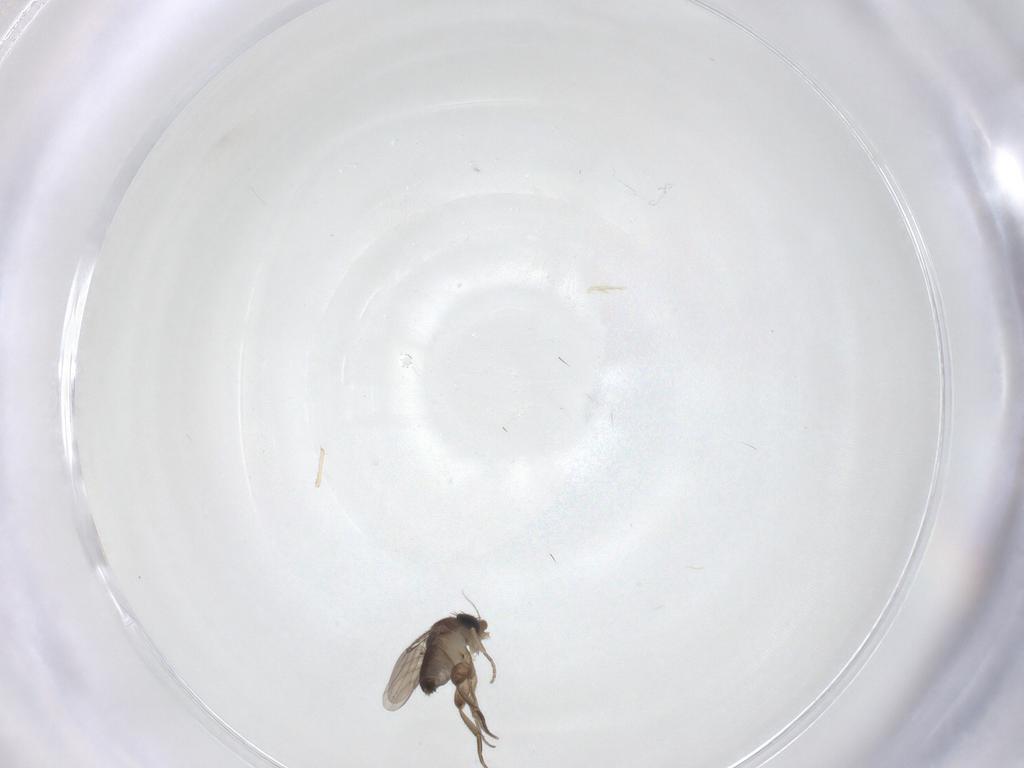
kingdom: Animalia
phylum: Arthropoda
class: Insecta
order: Diptera
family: Phoridae
